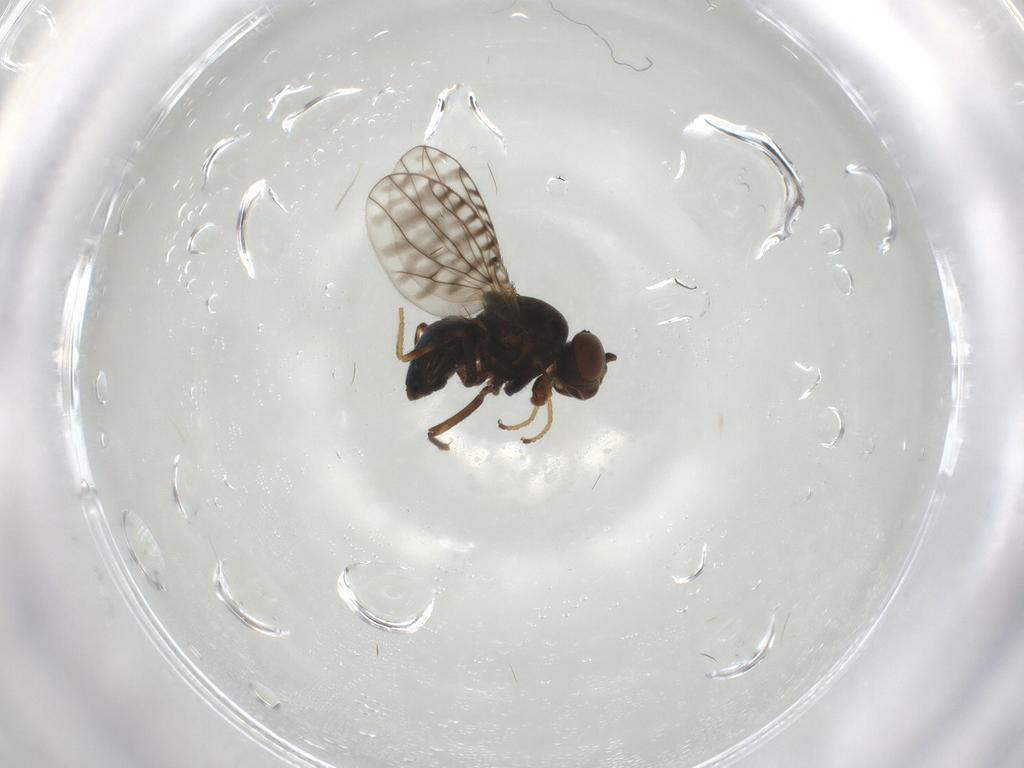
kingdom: Animalia
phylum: Arthropoda
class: Insecta
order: Diptera
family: Ephydridae
